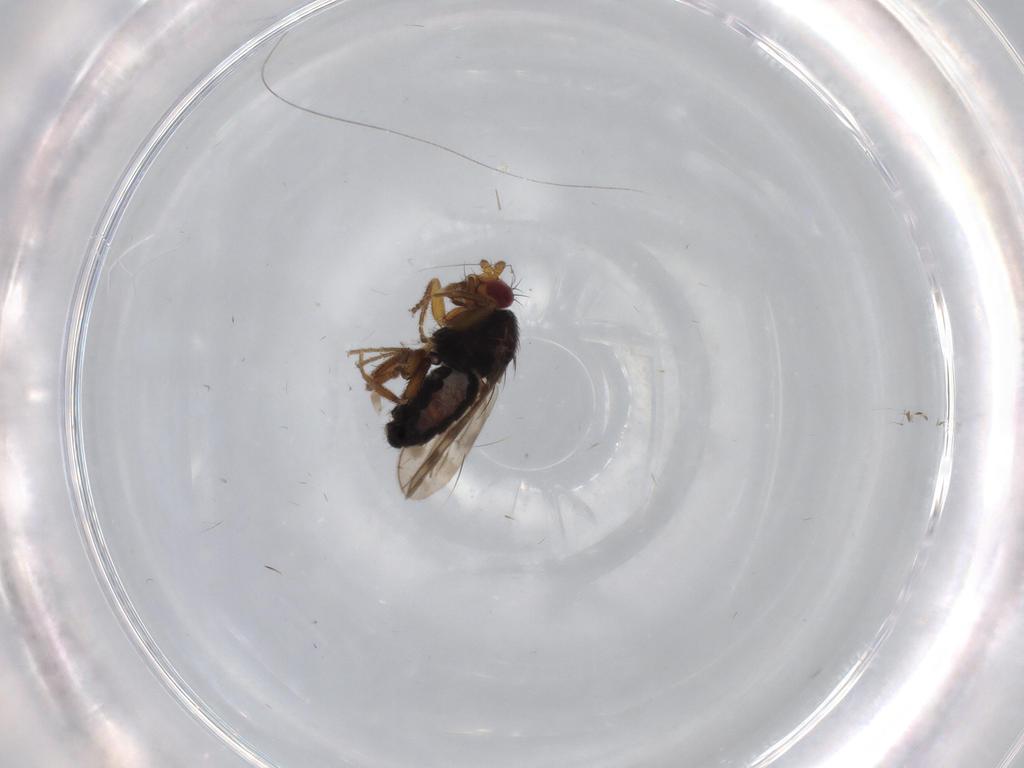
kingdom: Animalia
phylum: Arthropoda
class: Insecta
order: Diptera
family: Sphaeroceridae
